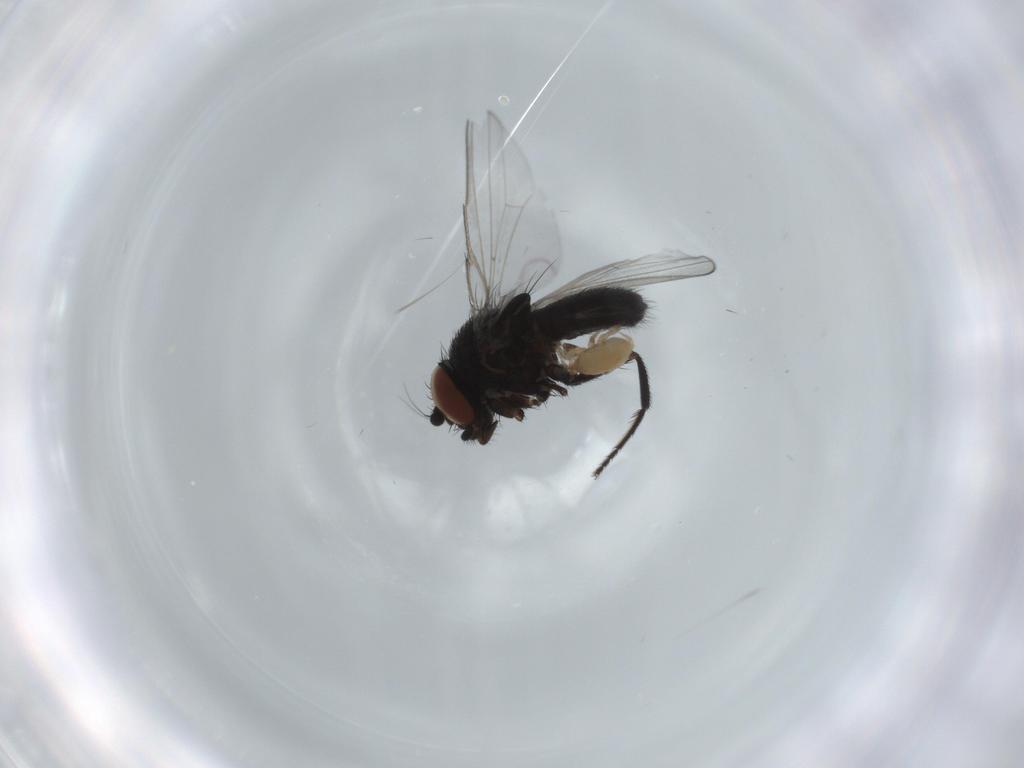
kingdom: Animalia
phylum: Arthropoda
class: Insecta
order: Diptera
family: Milichiidae
